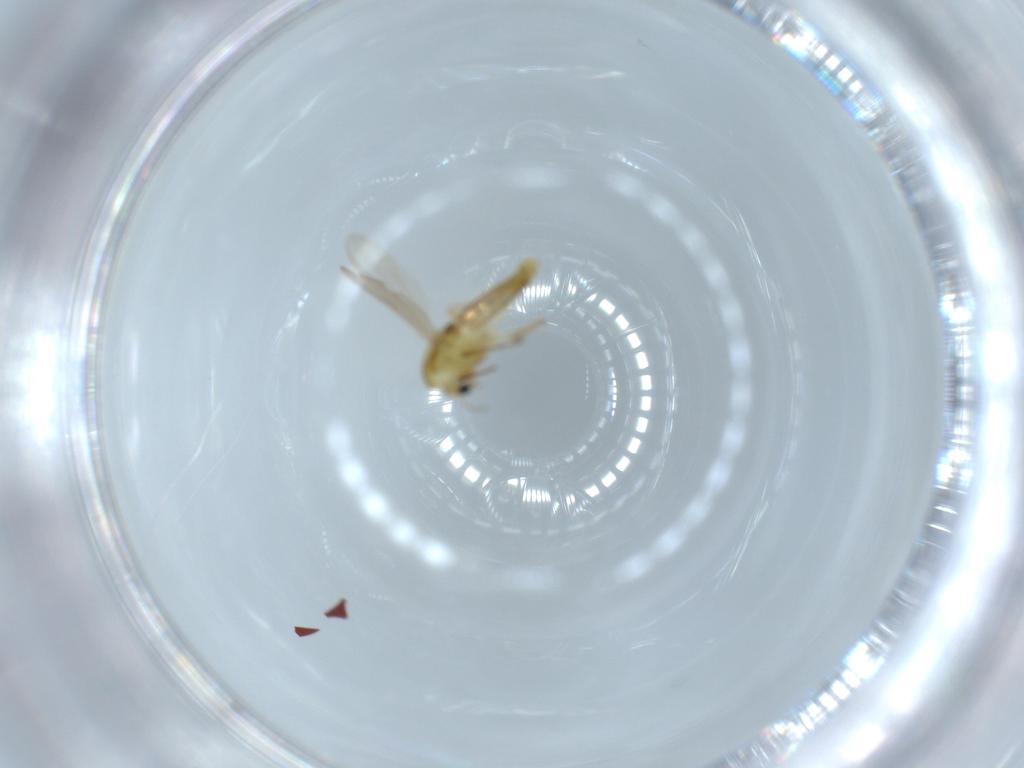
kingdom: Animalia
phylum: Arthropoda
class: Insecta
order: Diptera
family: Chironomidae
